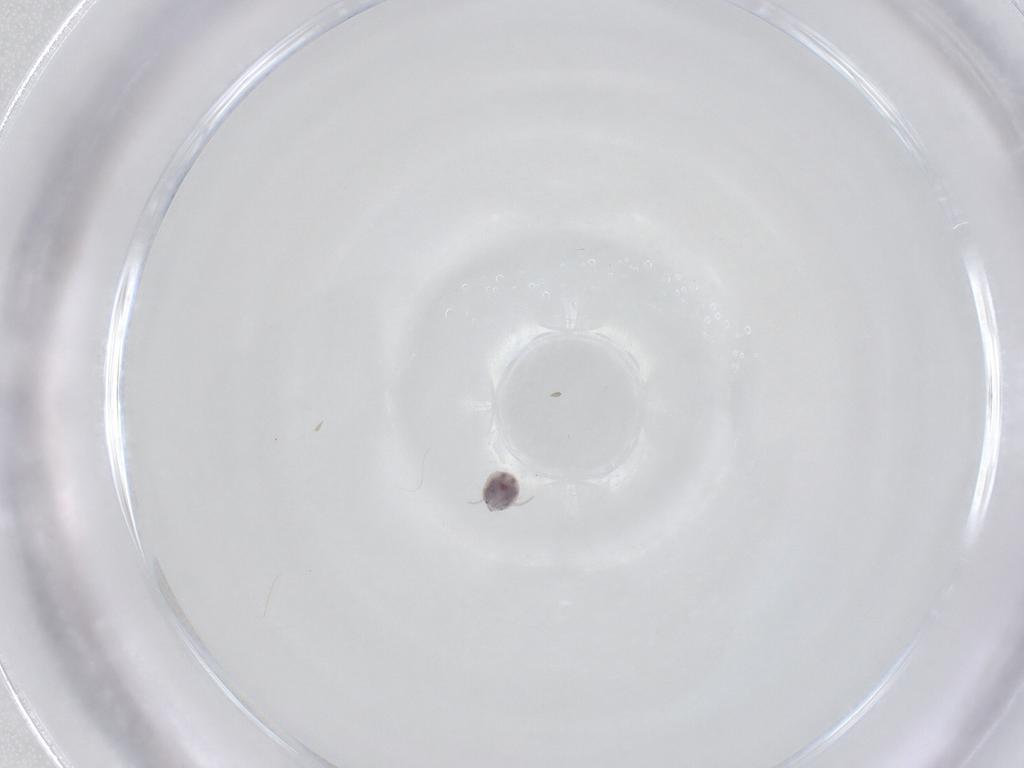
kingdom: Animalia
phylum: Arthropoda
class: Arachnida
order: Trombidiformes
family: Pionidae
